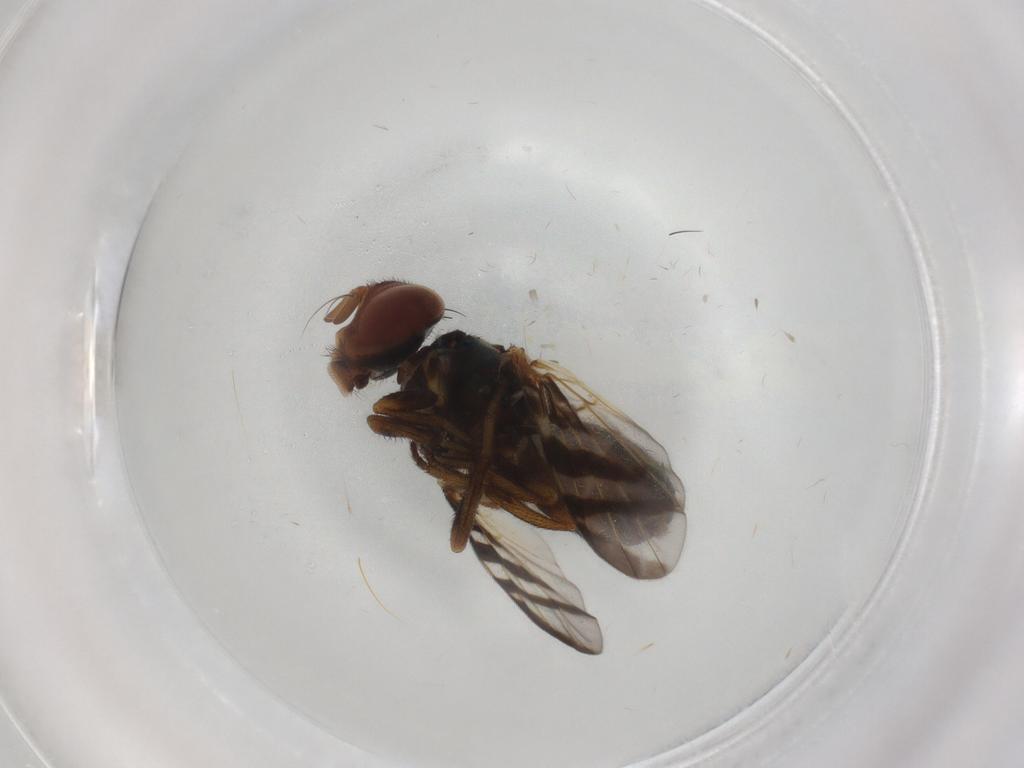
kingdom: Animalia
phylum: Arthropoda
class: Insecta
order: Diptera
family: Platystomatidae
